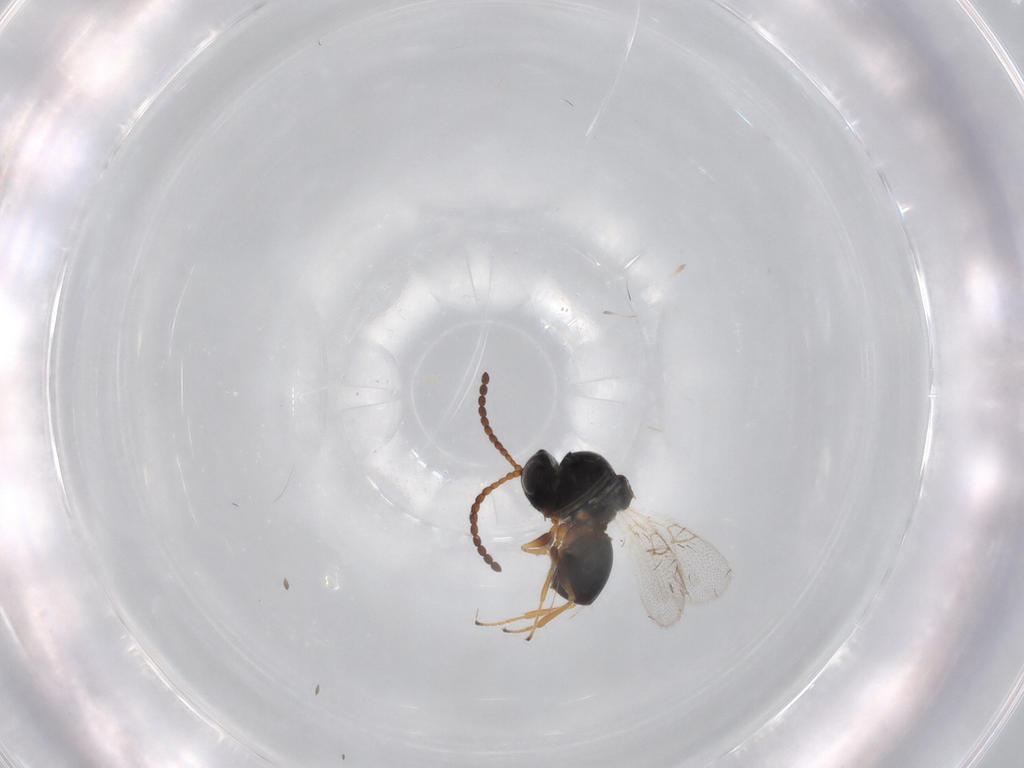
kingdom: Animalia
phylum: Arthropoda
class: Insecta
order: Hymenoptera
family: Figitidae
